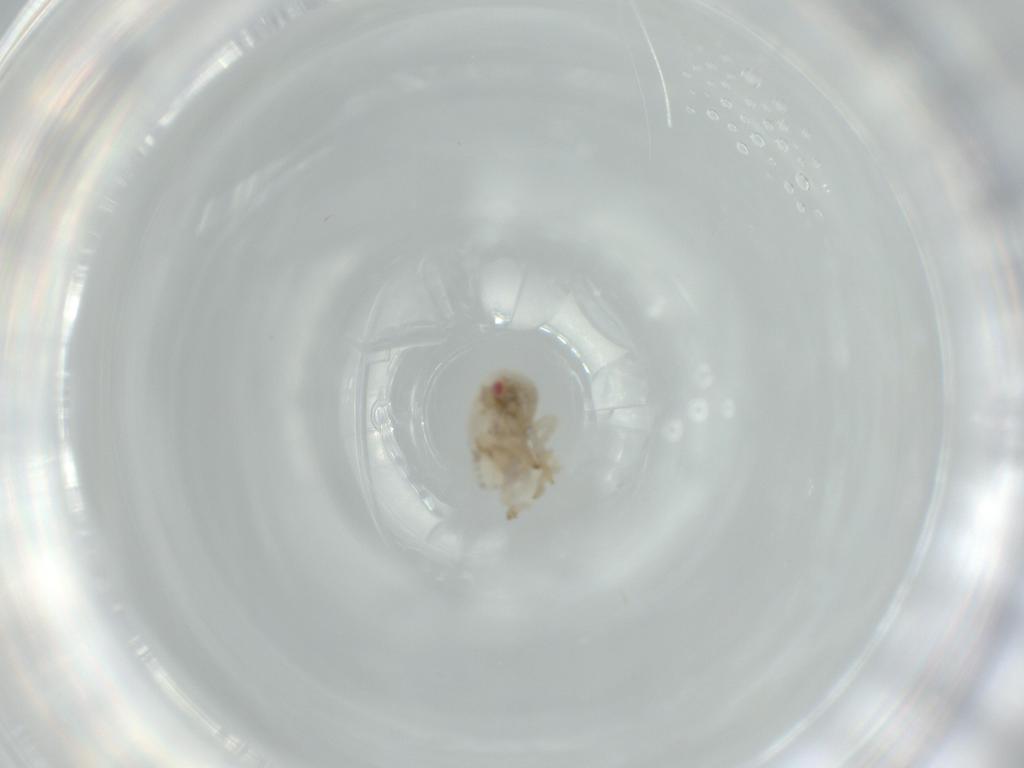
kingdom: Animalia
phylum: Arthropoda
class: Insecta
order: Hemiptera
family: Acanaloniidae
